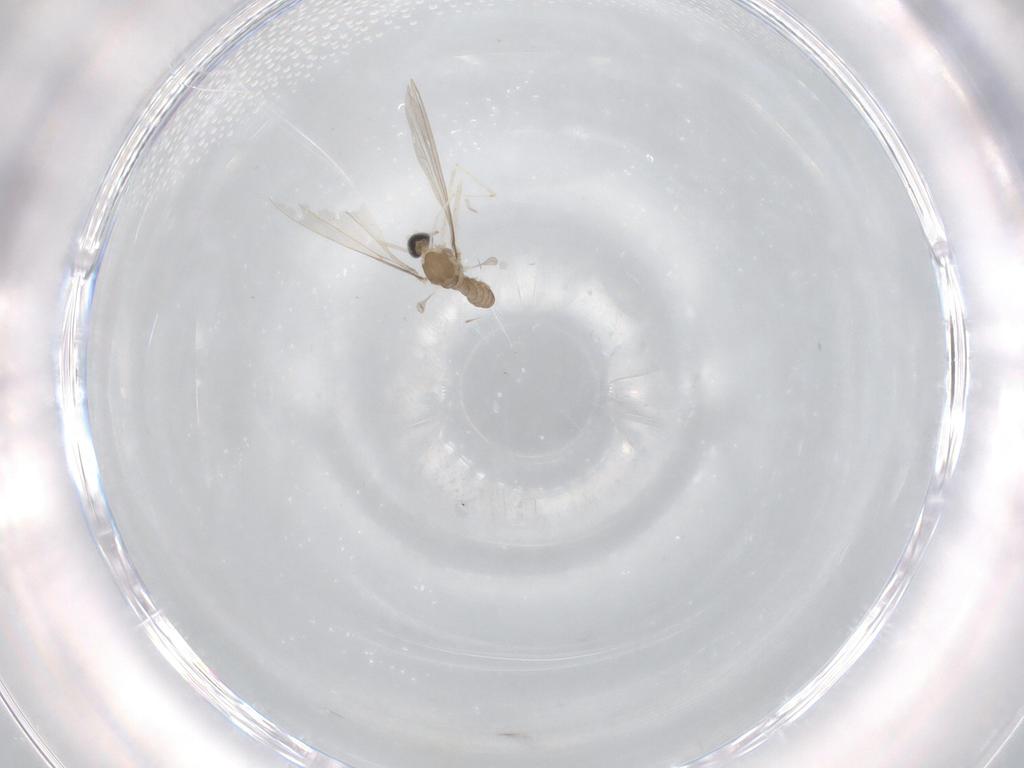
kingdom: Animalia
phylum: Arthropoda
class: Insecta
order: Diptera
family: Cecidomyiidae
